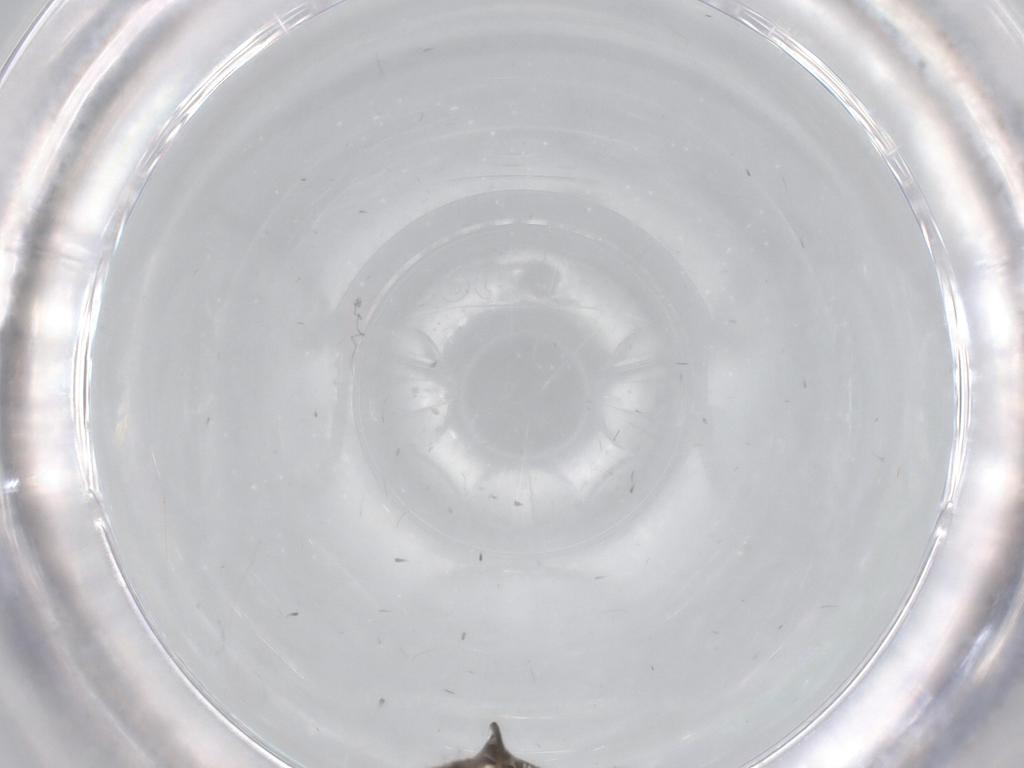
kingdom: Animalia
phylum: Arthropoda
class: Insecta
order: Diptera
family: Sciaridae
